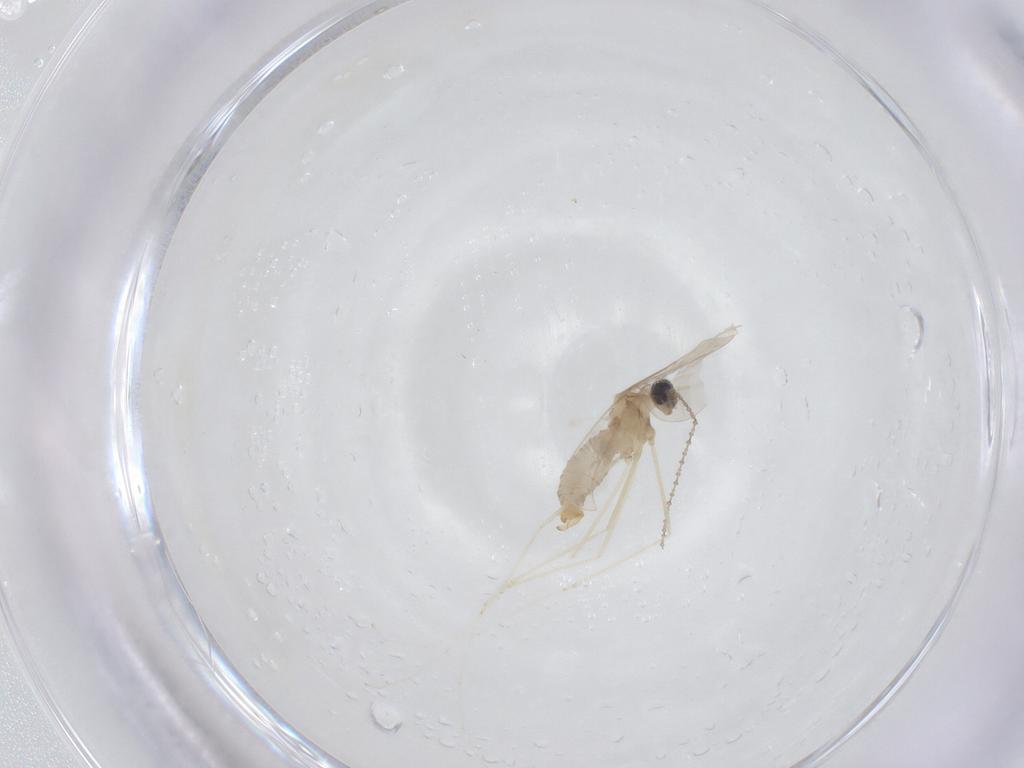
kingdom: Animalia
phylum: Arthropoda
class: Insecta
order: Diptera
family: Cecidomyiidae
